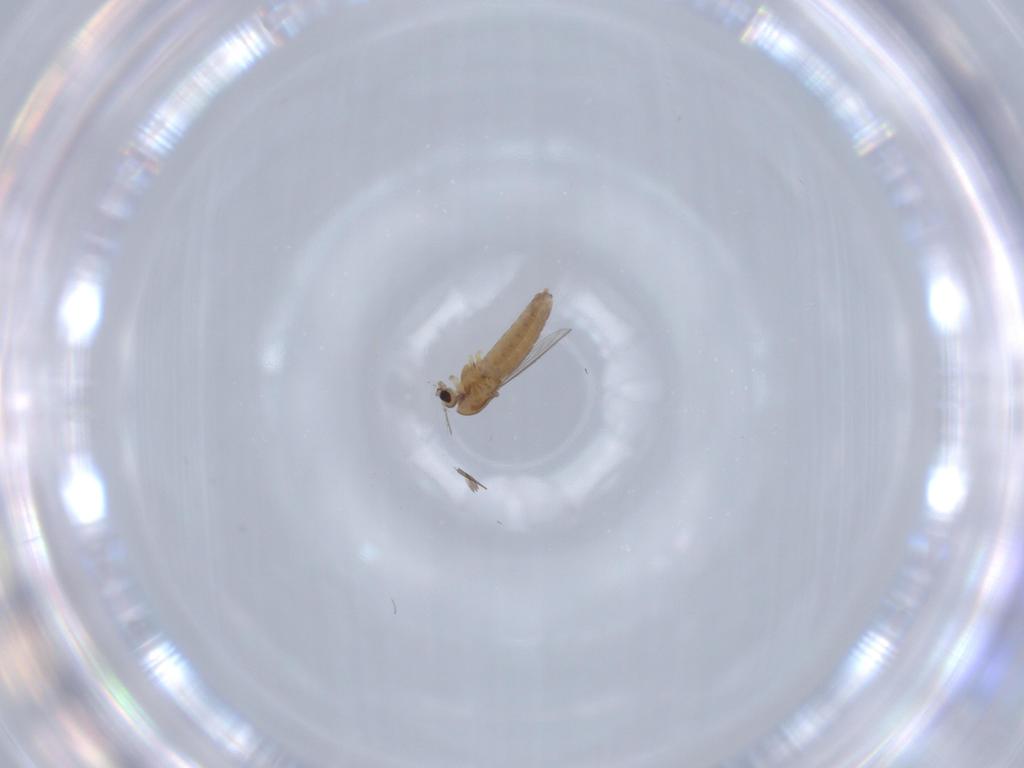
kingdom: Animalia
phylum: Arthropoda
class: Insecta
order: Diptera
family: Chironomidae
